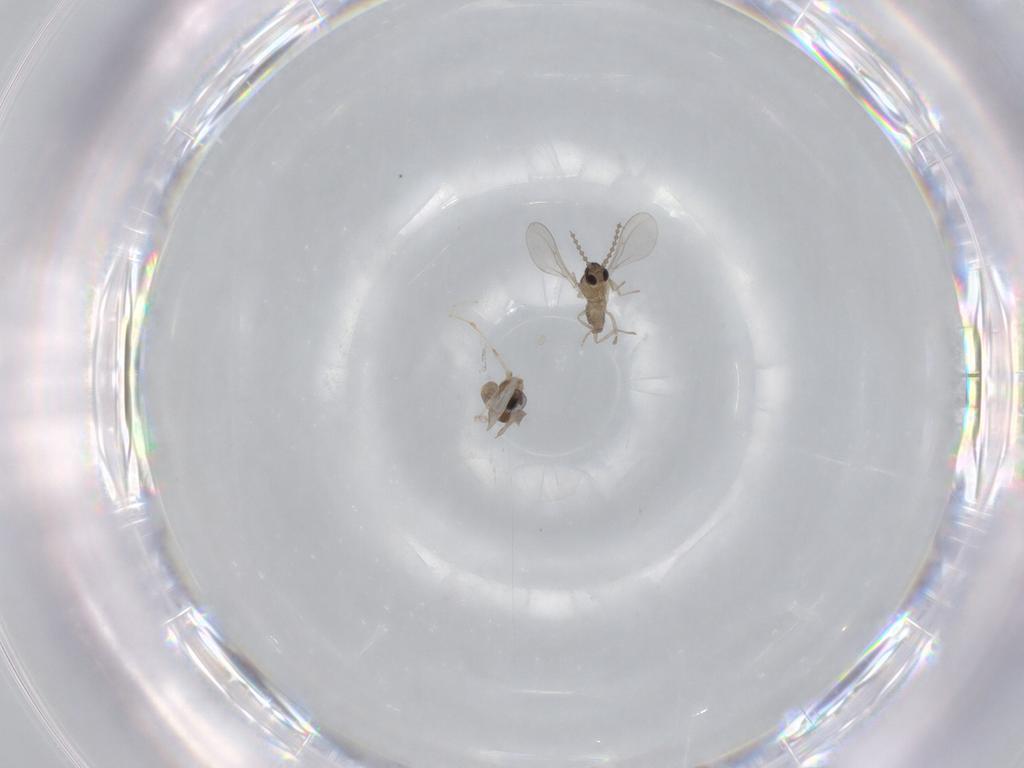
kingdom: Animalia
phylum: Arthropoda
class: Insecta
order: Diptera
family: Cecidomyiidae
